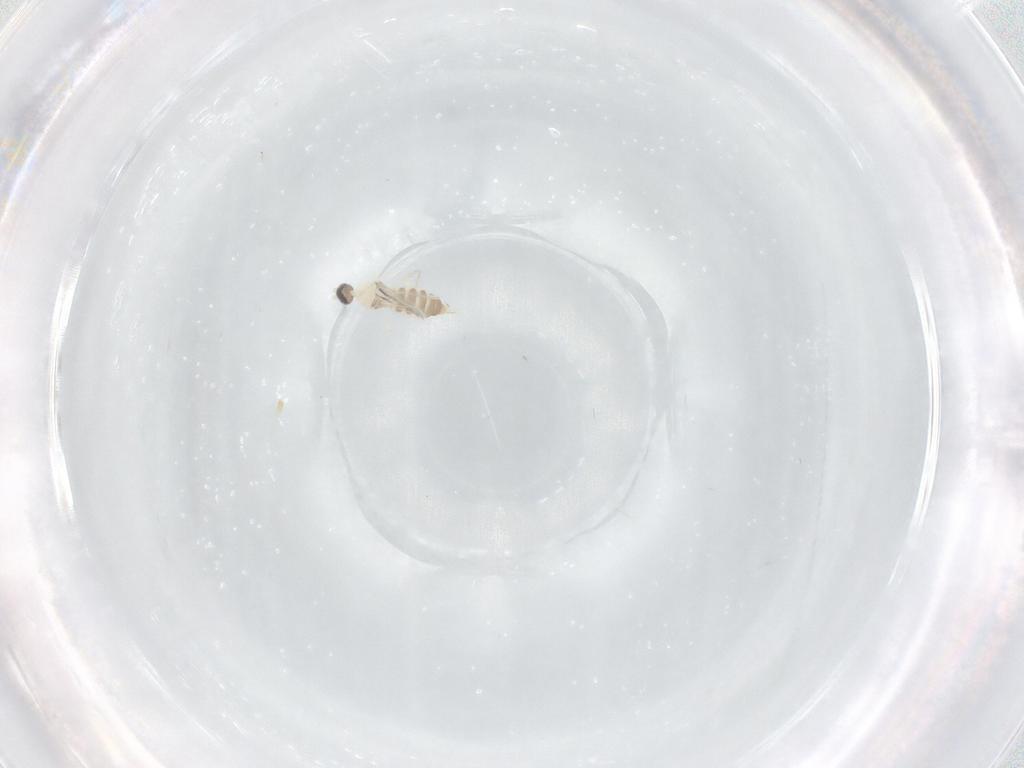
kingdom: Animalia
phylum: Arthropoda
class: Insecta
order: Diptera
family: Cecidomyiidae
